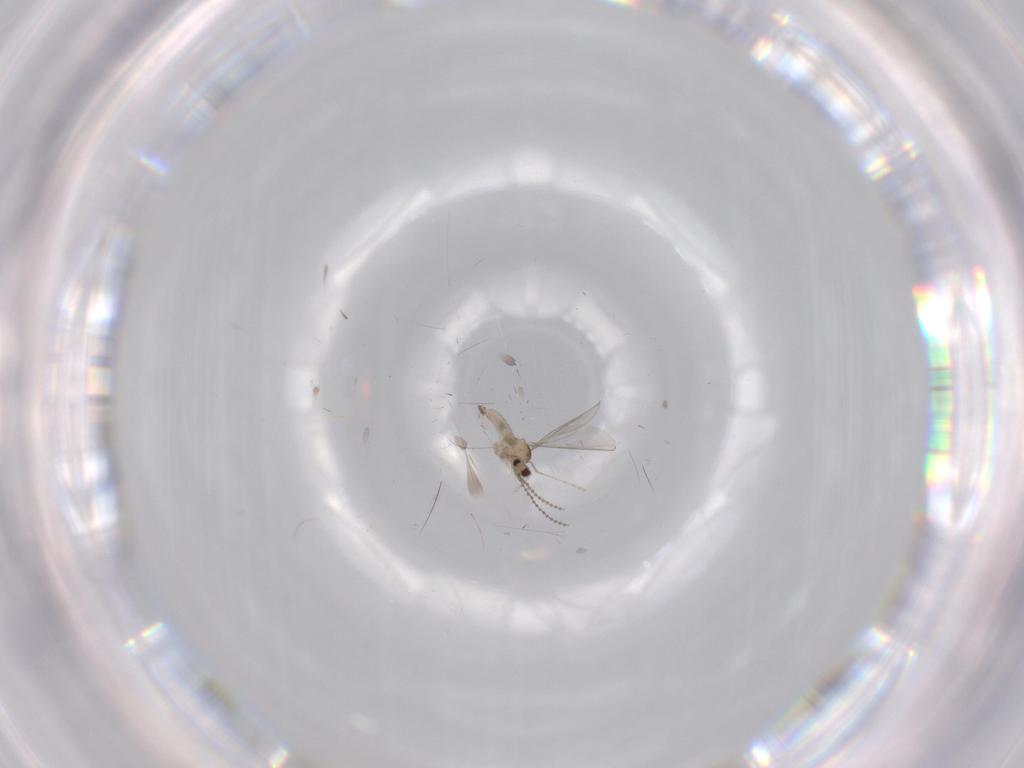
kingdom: Animalia
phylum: Arthropoda
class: Insecta
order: Diptera
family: Cecidomyiidae
